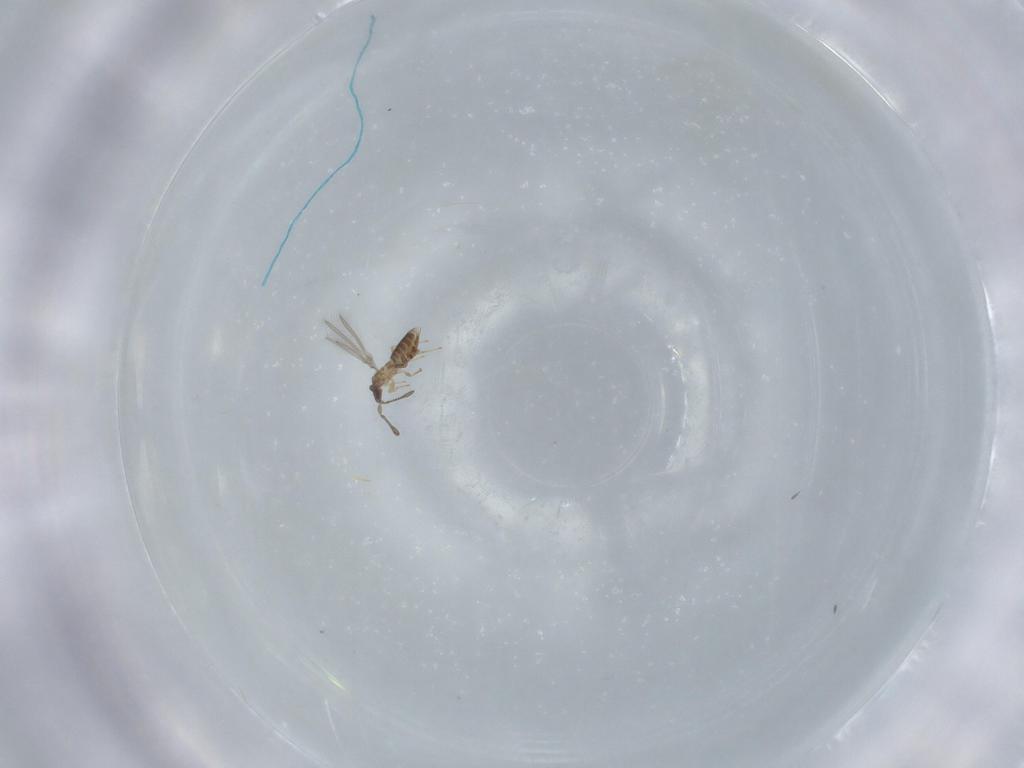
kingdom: Animalia
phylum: Arthropoda
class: Insecta
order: Hymenoptera
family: Mymaridae
